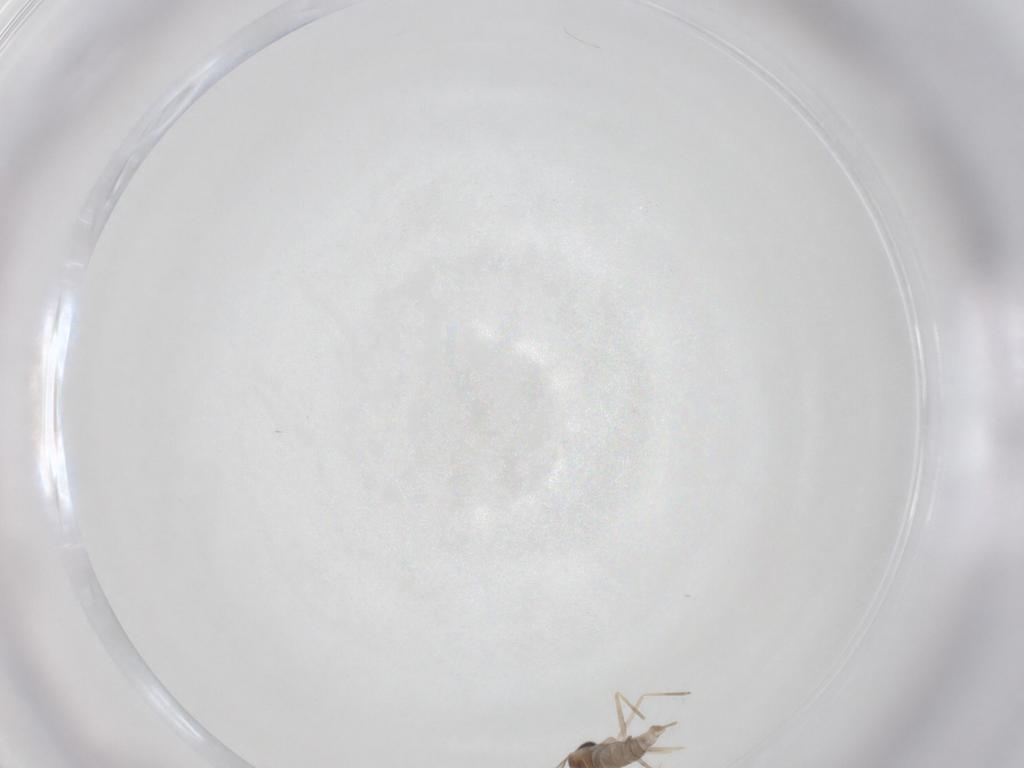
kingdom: Animalia
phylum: Arthropoda
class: Insecta
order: Diptera
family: Cecidomyiidae
